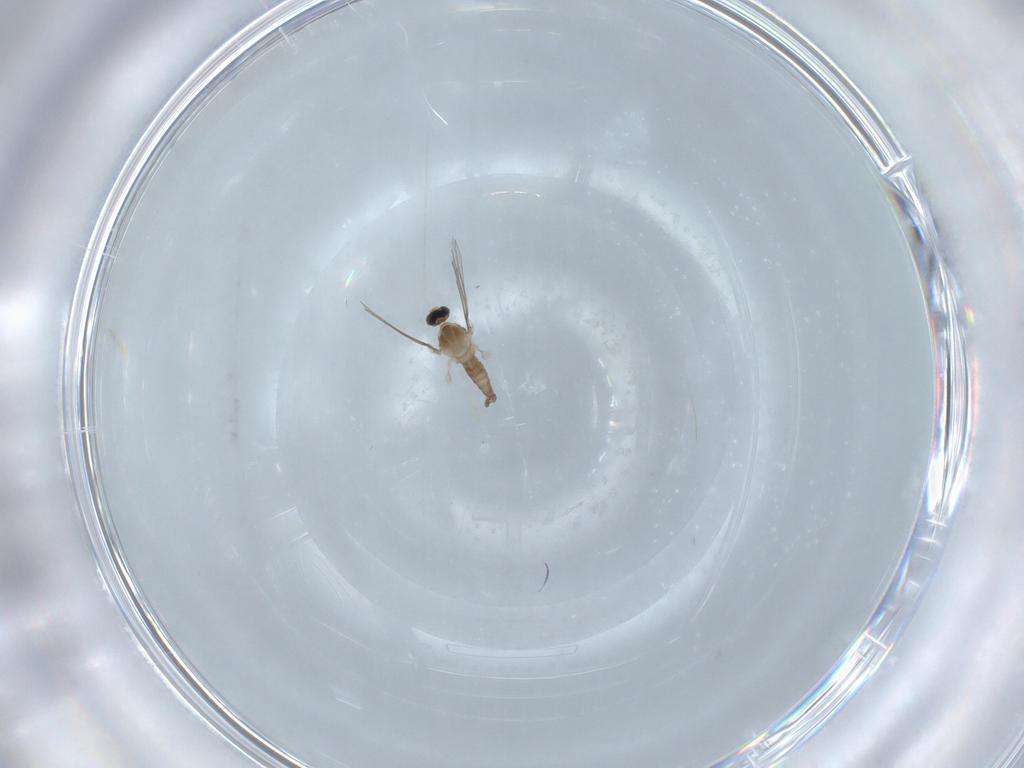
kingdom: Animalia
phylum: Arthropoda
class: Insecta
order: Diptera
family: Cecidomyiidae
